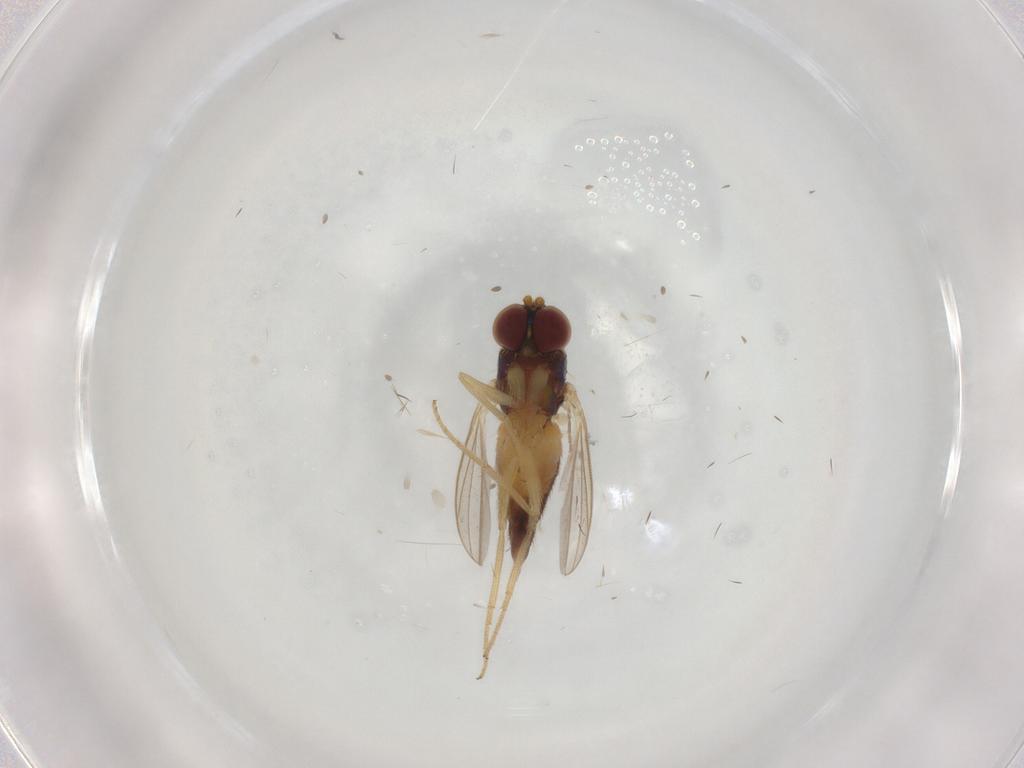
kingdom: Animalia
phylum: Arthropoda
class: Insecta
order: Diptera
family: Dolichopodidae
